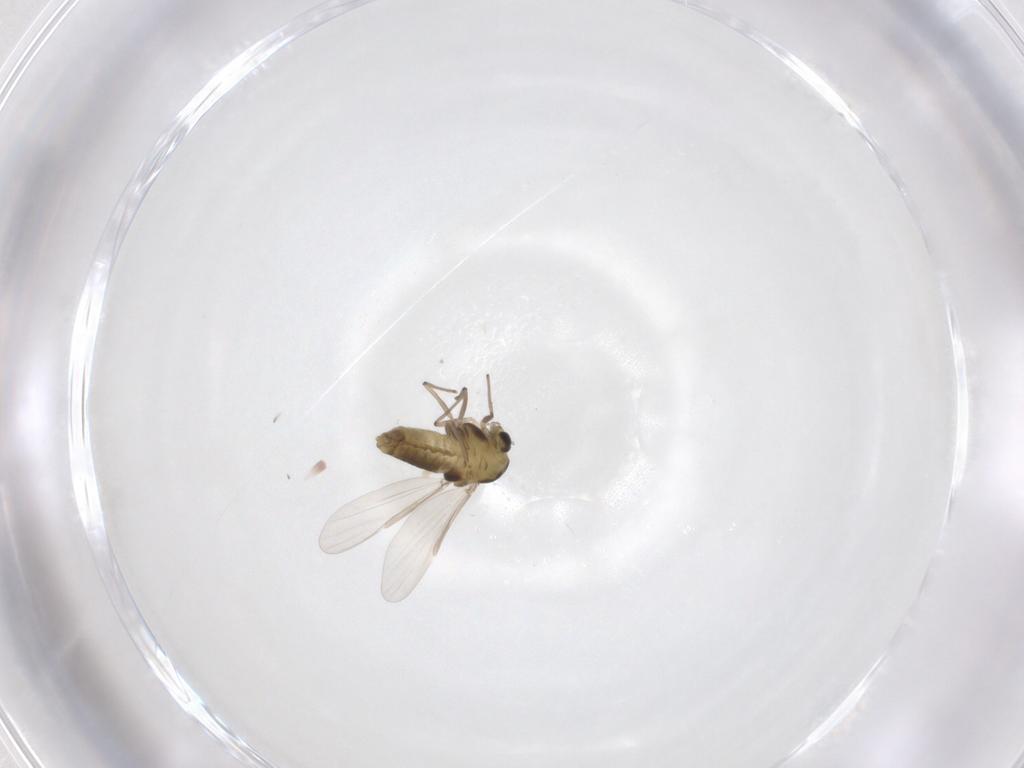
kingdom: Animalia
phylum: Arthropoda
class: Insecta
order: Diptera
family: Chironomidae
